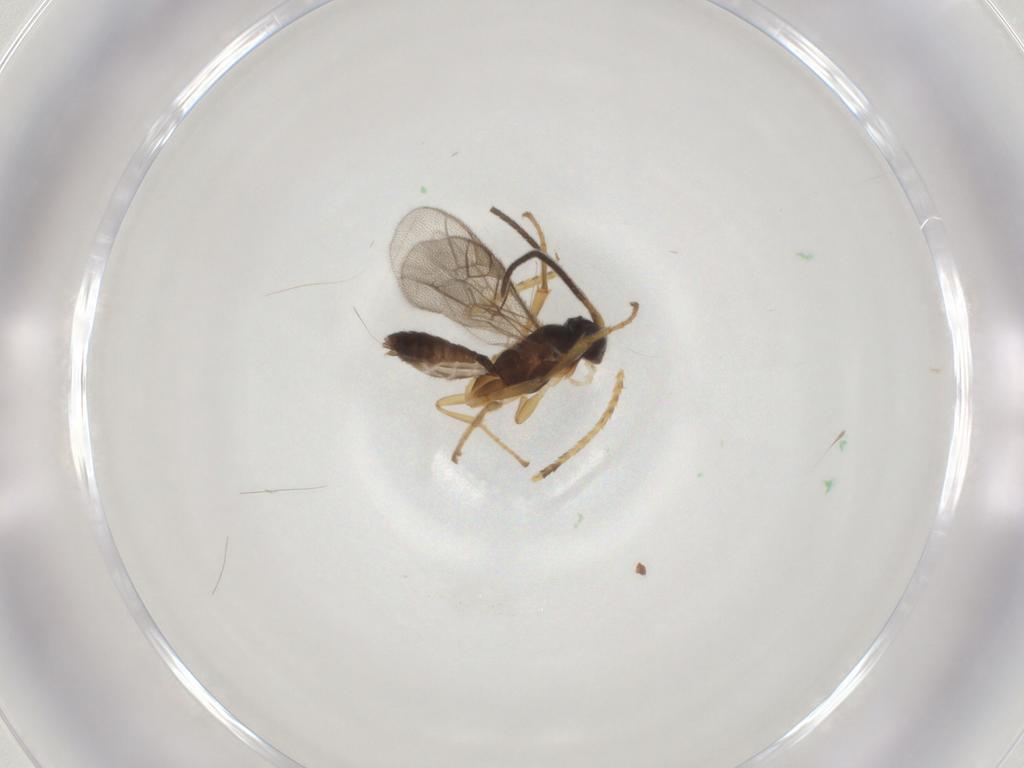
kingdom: Animalia
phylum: Arthropoda
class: Insecta
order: Hymenoptera
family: Ichneumonidae
